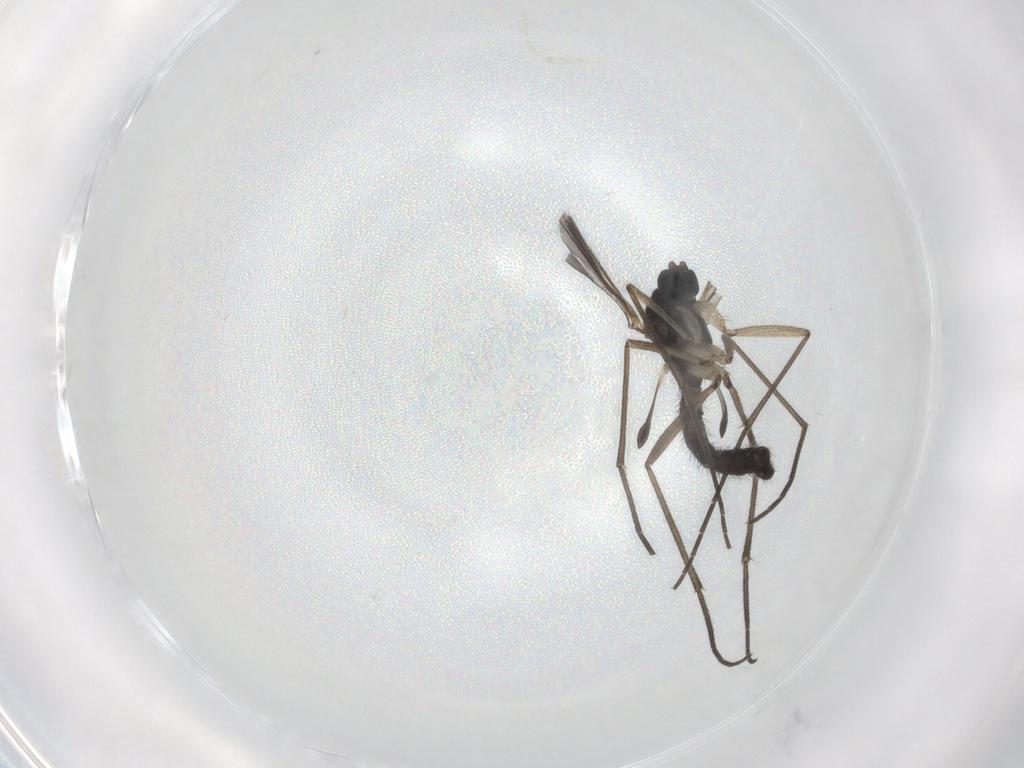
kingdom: Animalia
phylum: Arthropoda
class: Insecta
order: Diptera
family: Sciaridae
